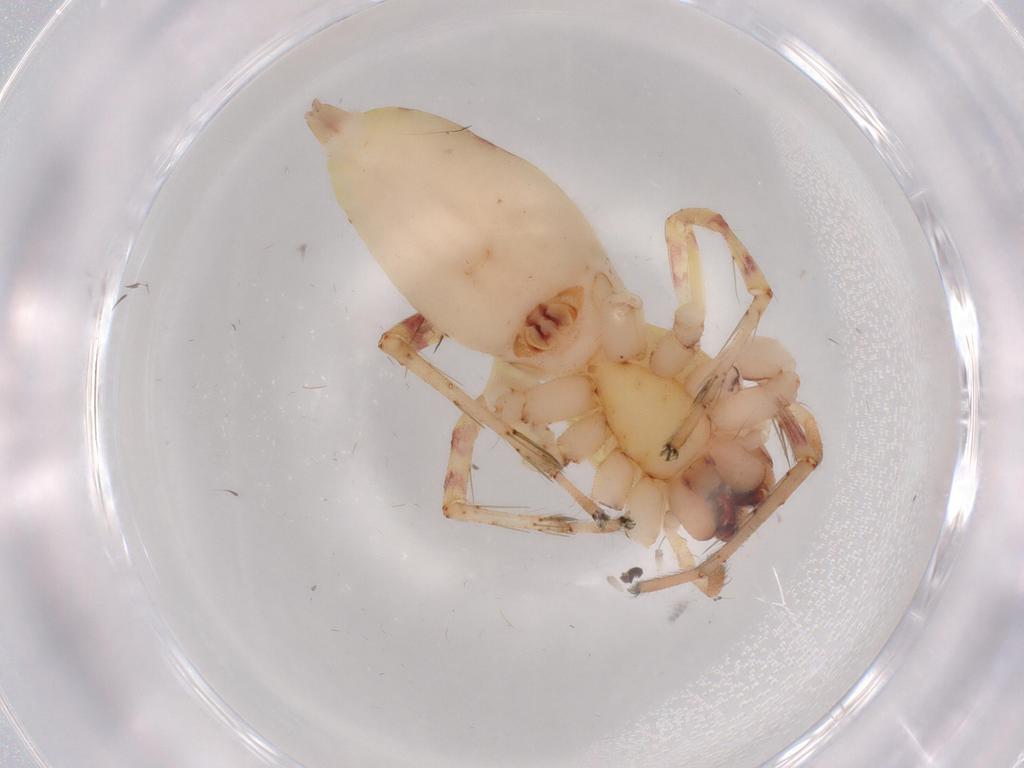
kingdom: Animalia
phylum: Arthropoda
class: Arachnida
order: Araneae
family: Anyphaenidae
